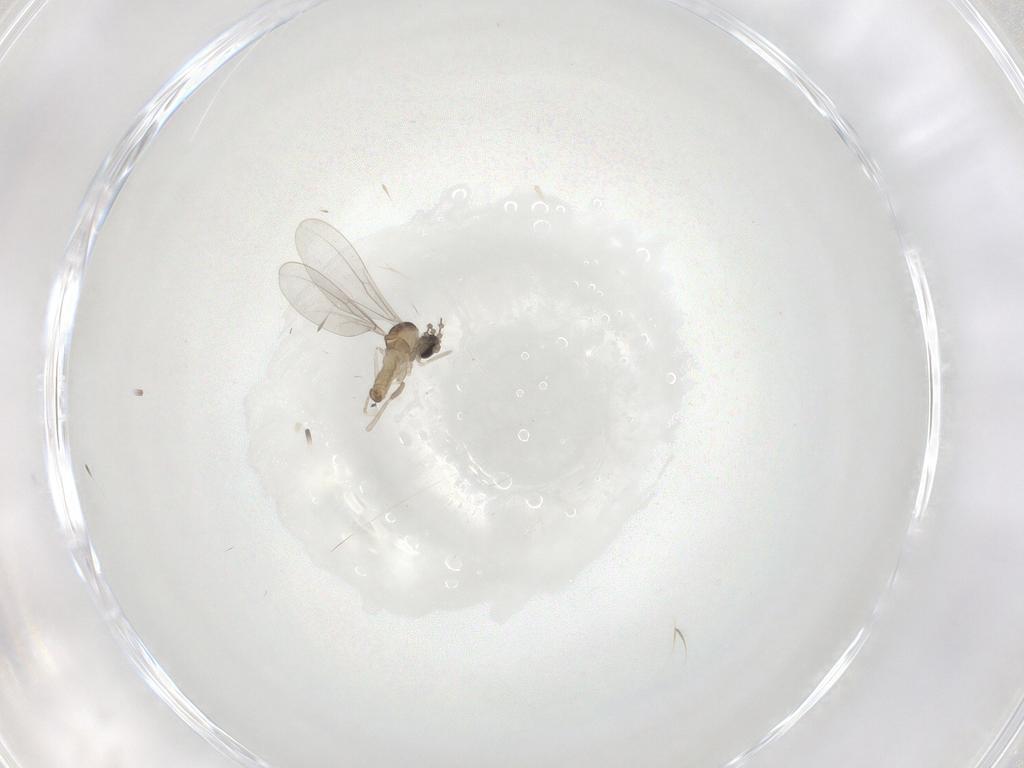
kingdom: Animalia
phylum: Arthropoda
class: Insecta
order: Diptera
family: Cecidomyiidae
